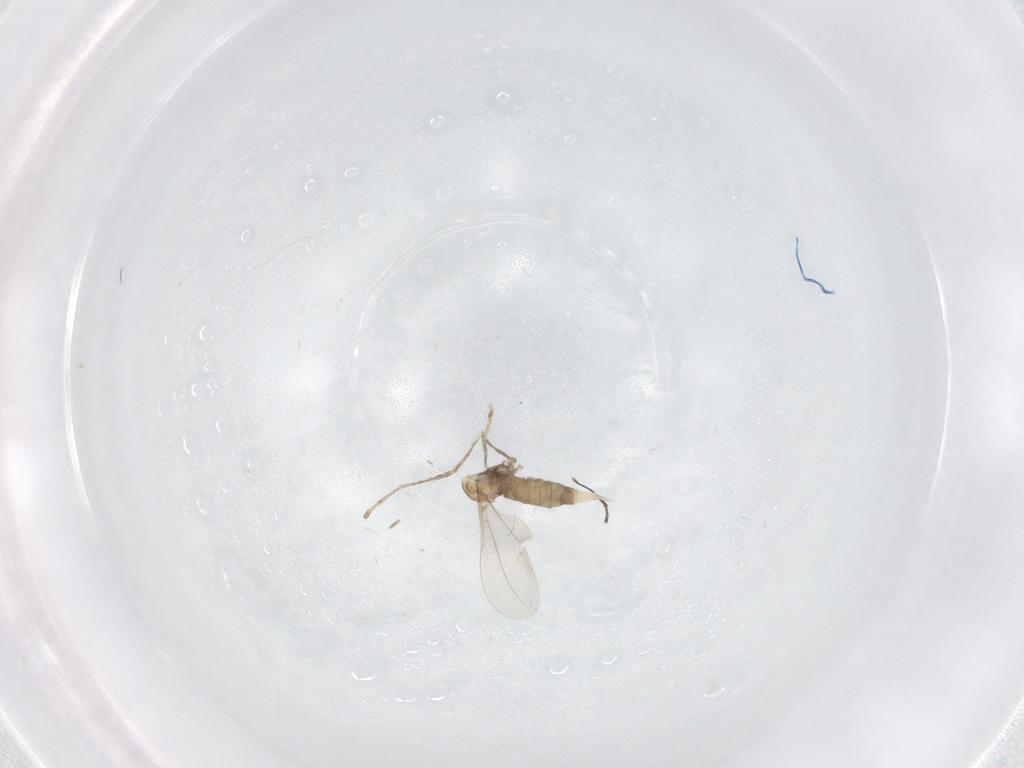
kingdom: Animalia
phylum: Arthropoda
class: Insecta
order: Diptera
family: Cecidomyiidae
